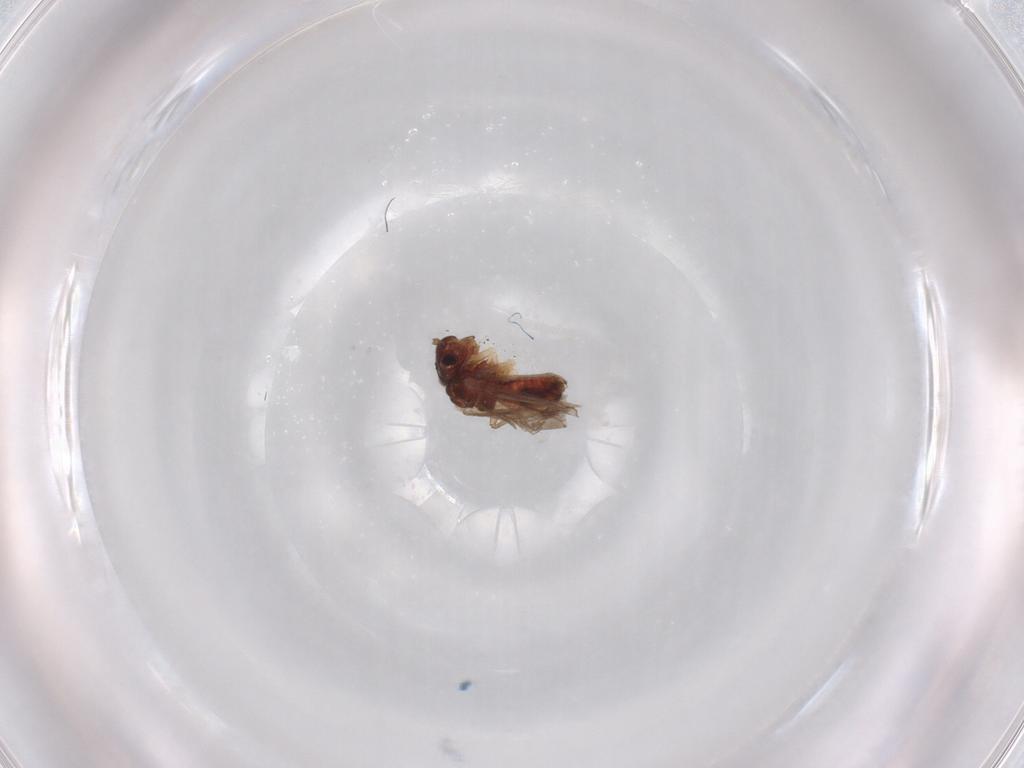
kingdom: Animalia
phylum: Arthropoda
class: Insecta
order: Psocodea
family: Caeciliusidae
